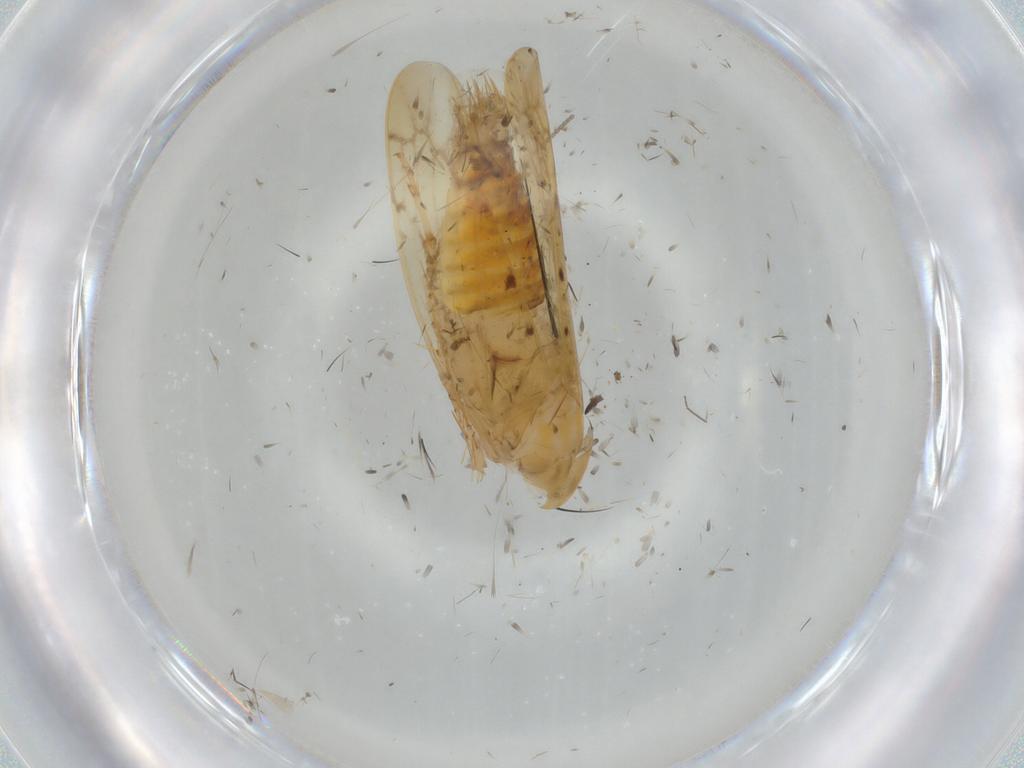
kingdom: Animalia
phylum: Arthropoda
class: Insecta
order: Hemiptera
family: Cicadellidae
